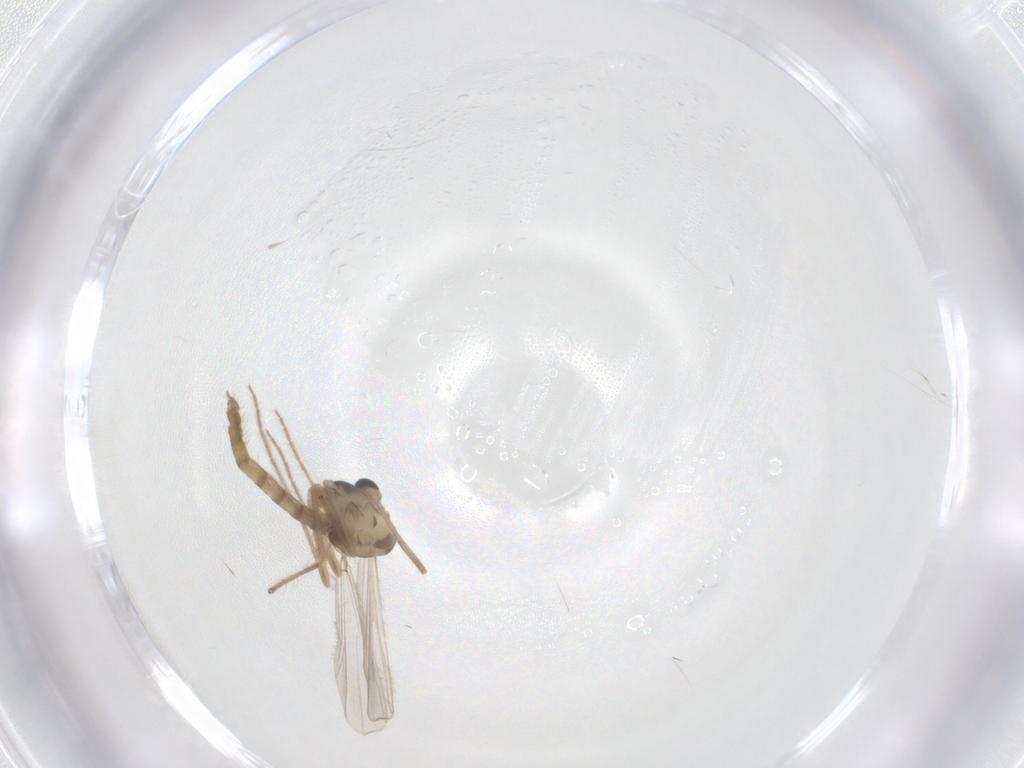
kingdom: Animalia
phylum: Arthropoda
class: Insecta
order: Diptera
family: Chironomidae
